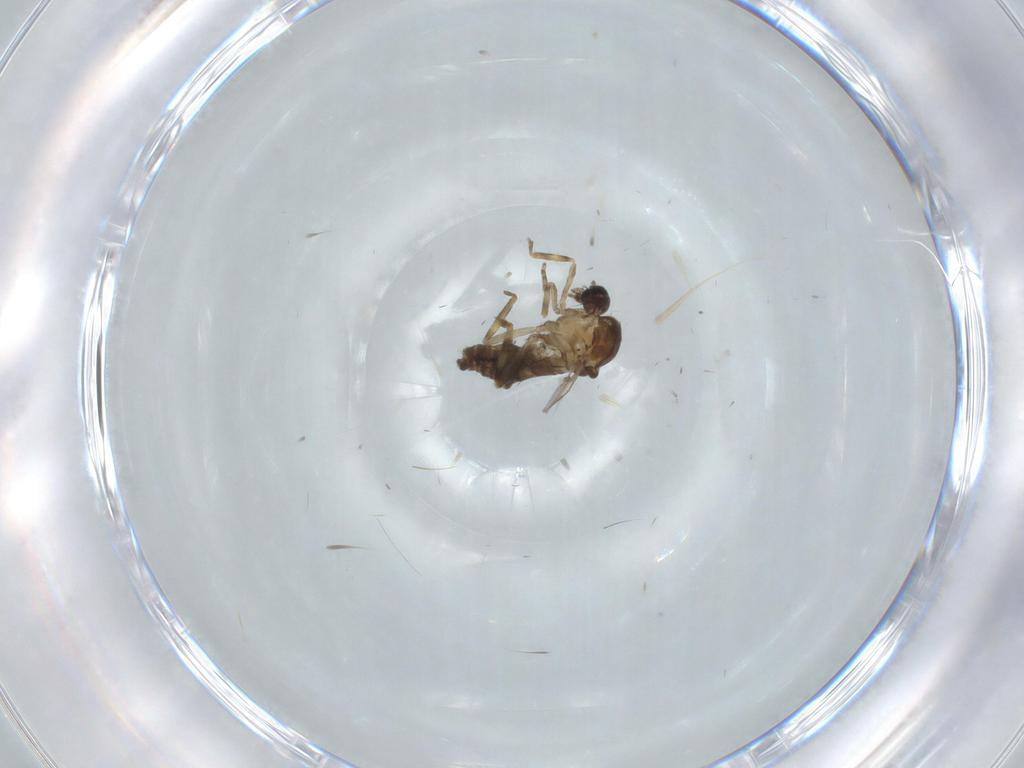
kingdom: Animalia
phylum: Arthropoda
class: Insecta
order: Diptera
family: Ceratopogonidae
